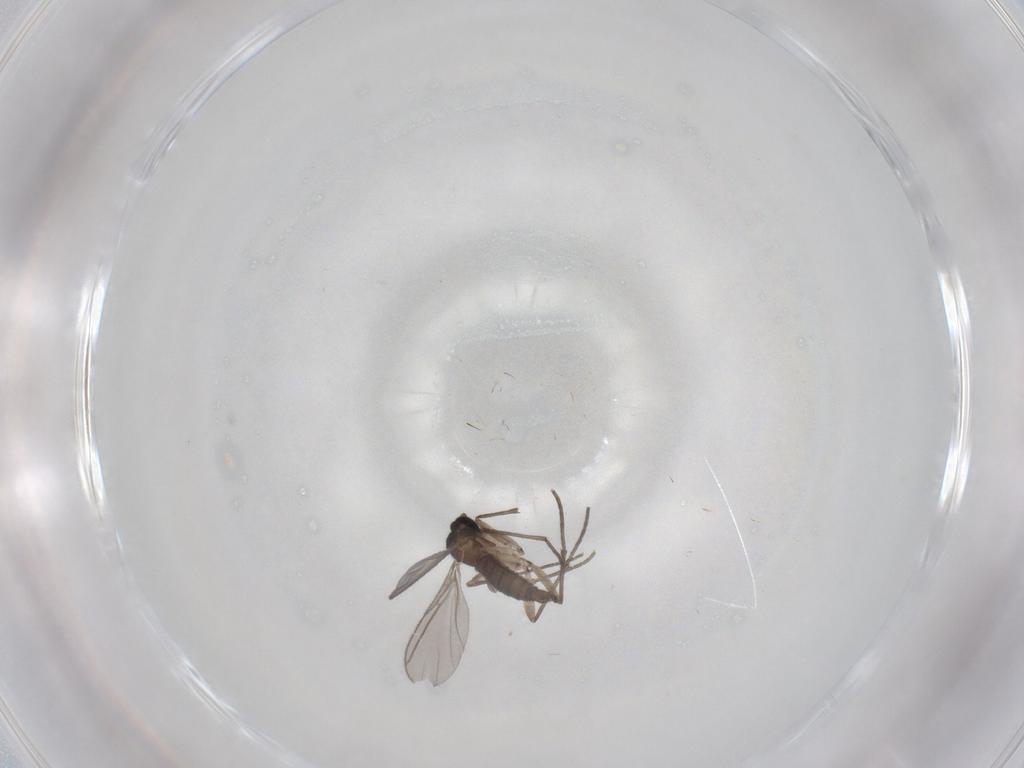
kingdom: Animalia
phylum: Arthropoda
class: Insecta
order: Diptera
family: Sciaridae
